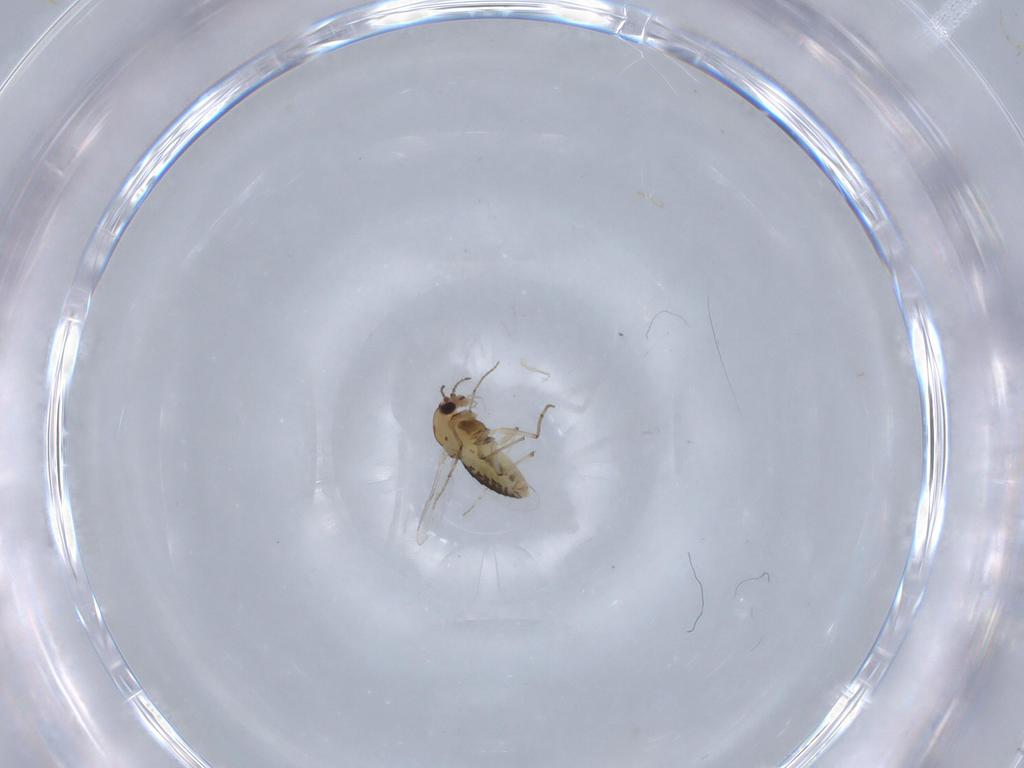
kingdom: Animalia
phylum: Arthropoda
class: Insecta
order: Diptera
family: Chironomidae
